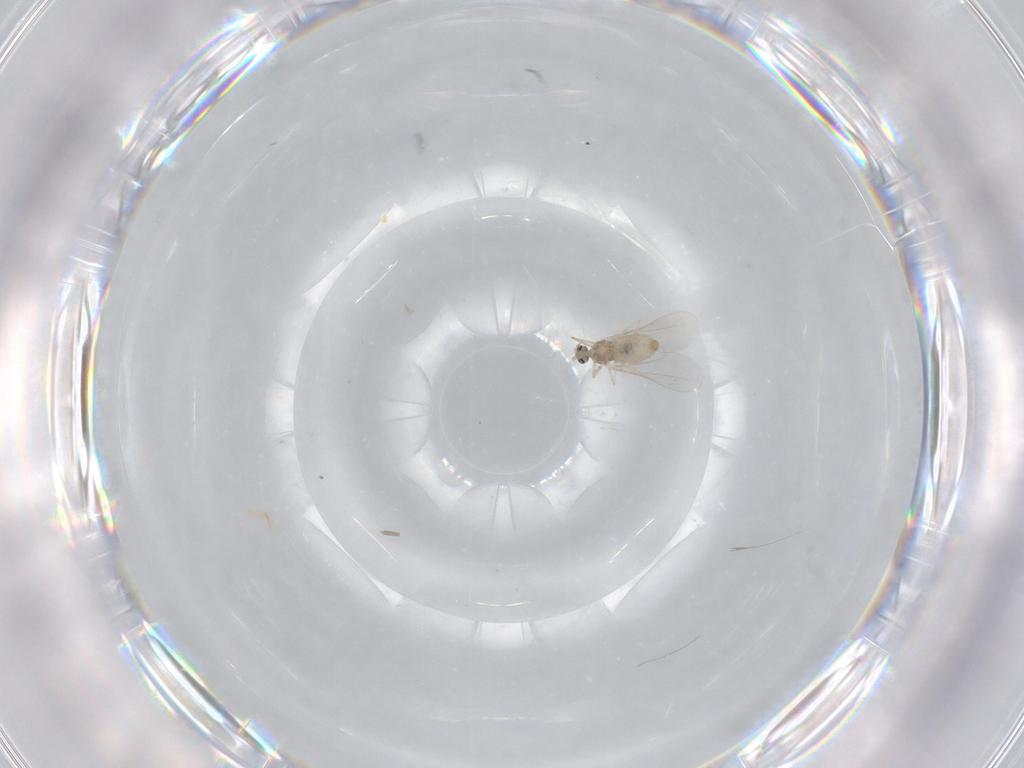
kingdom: Animalia
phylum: Arthropoda
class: Insecta
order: Diptera
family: Cecidomyiidae
